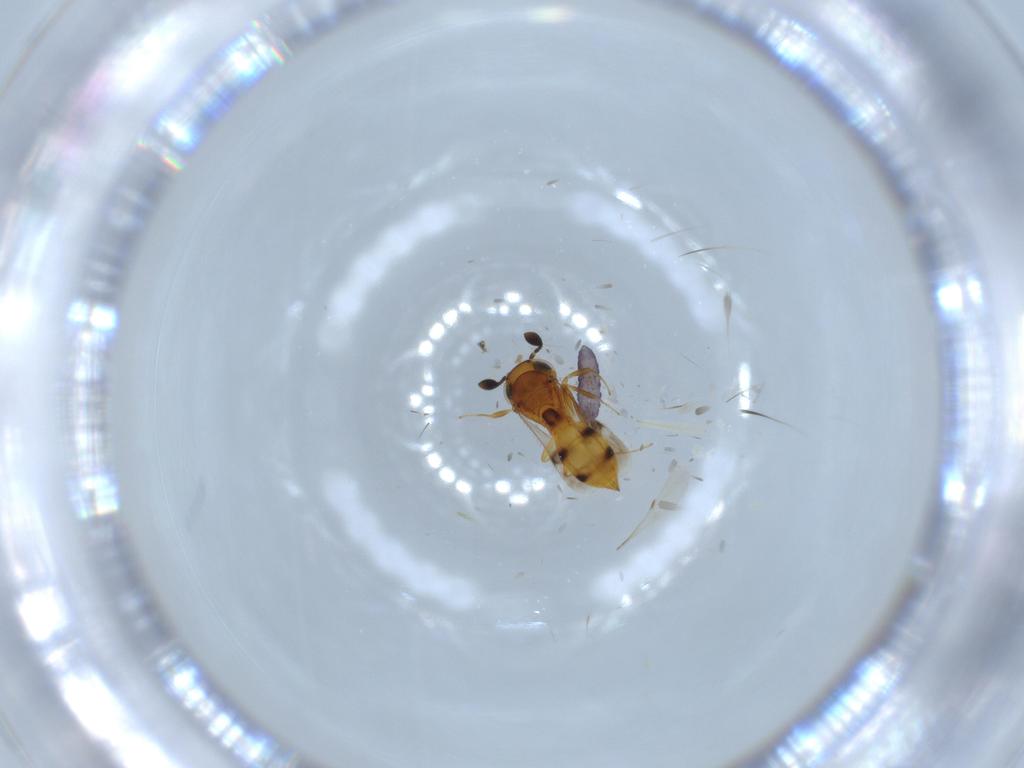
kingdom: Animalia
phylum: Arthropoda
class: Insecta
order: Hymenoptera
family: Scelionidae
